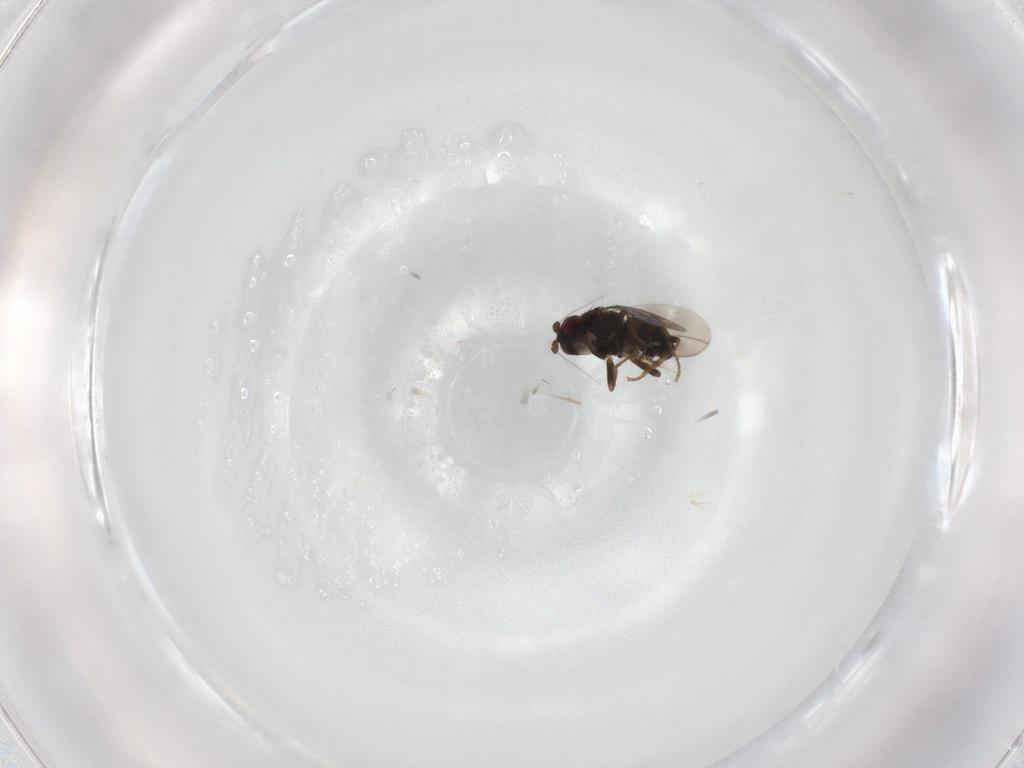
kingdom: Animalia
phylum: Arthropoda
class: Insecta
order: Diptera
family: Sphaeroceridae
